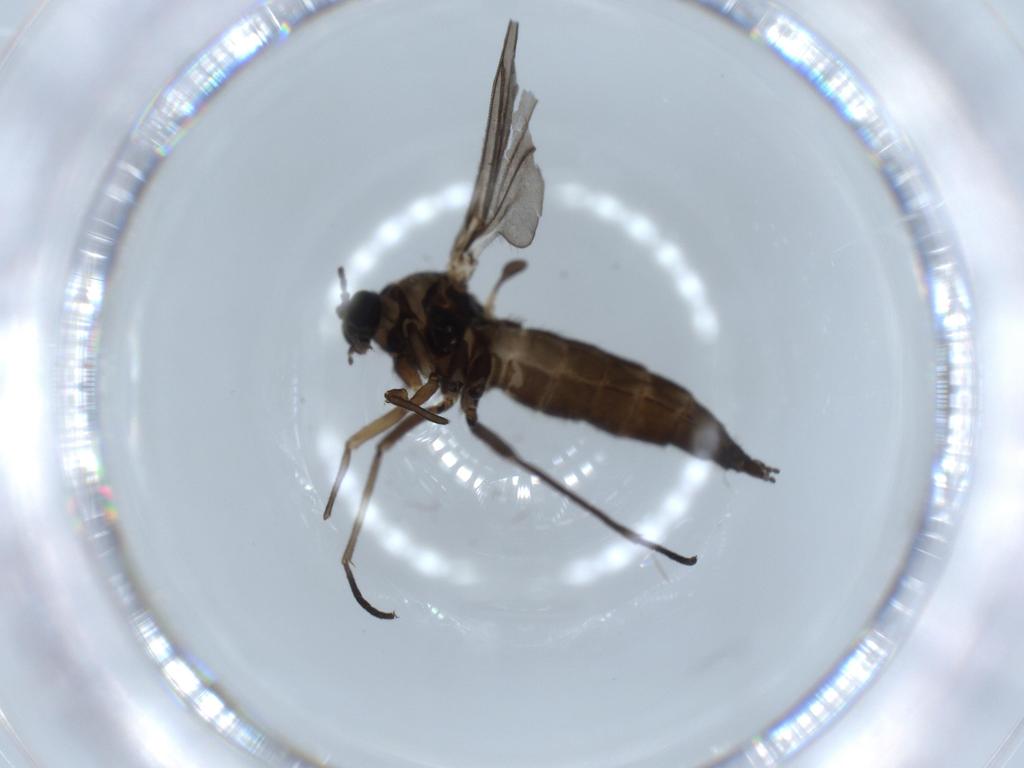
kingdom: Animalia
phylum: Arthropoda
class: Insecta
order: Diptera
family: Sciaridae
